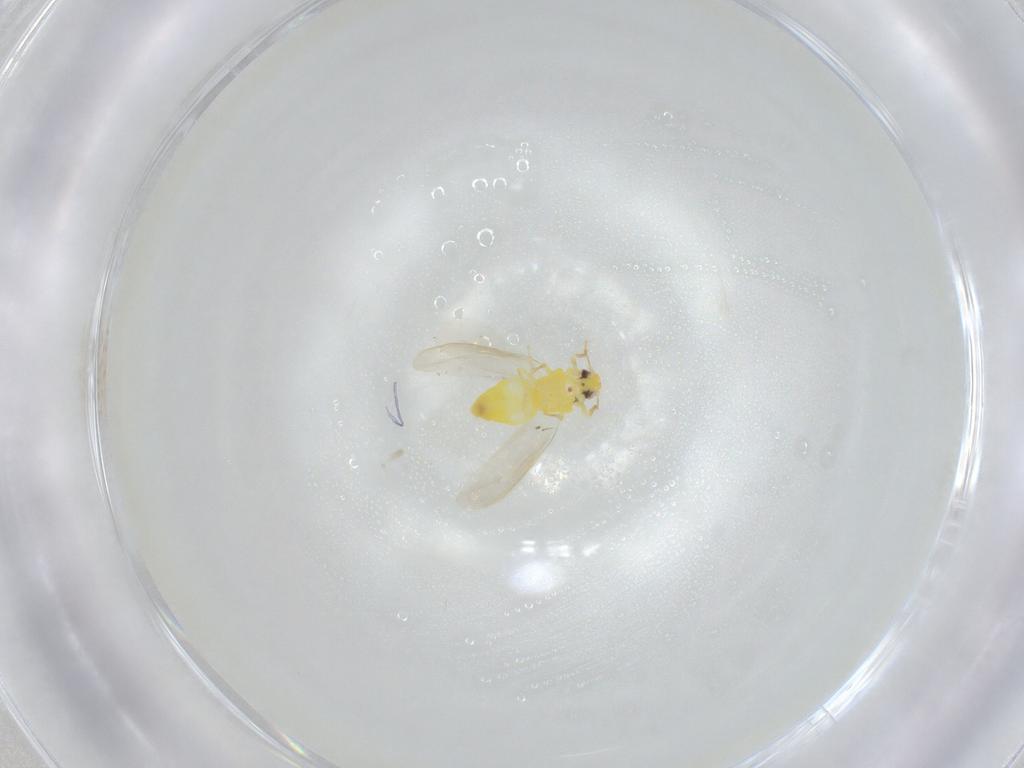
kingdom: Animalia
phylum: Arthropoda
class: Insecta
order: Hemiptera
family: Aleyrodidae
